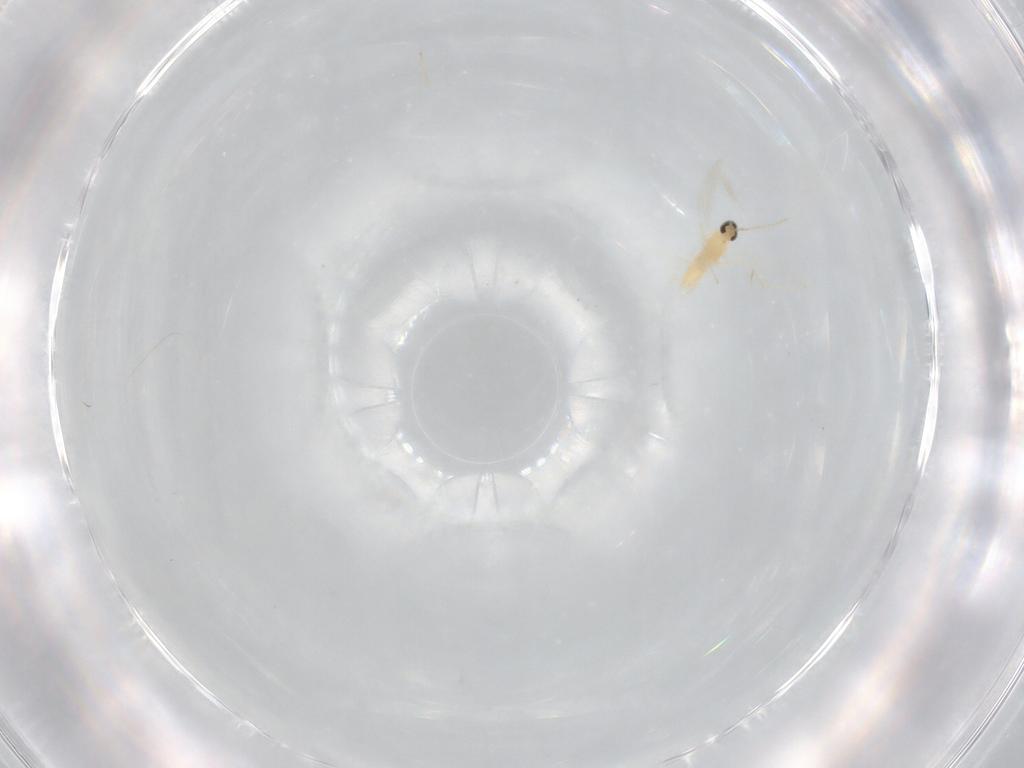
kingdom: Animalia
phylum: Arthropoda
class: Insecta
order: Diptera
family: Cecidomyiidae
